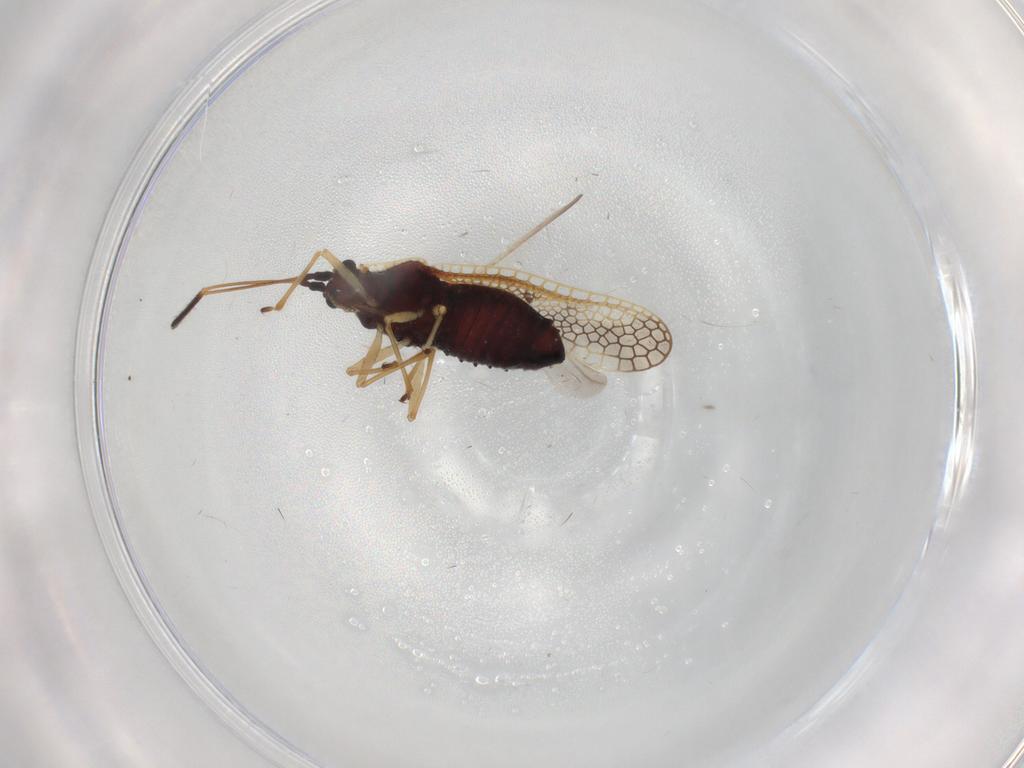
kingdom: Animalia
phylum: Arthropoda
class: Insecta
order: Hemiptera
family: Tingidae
